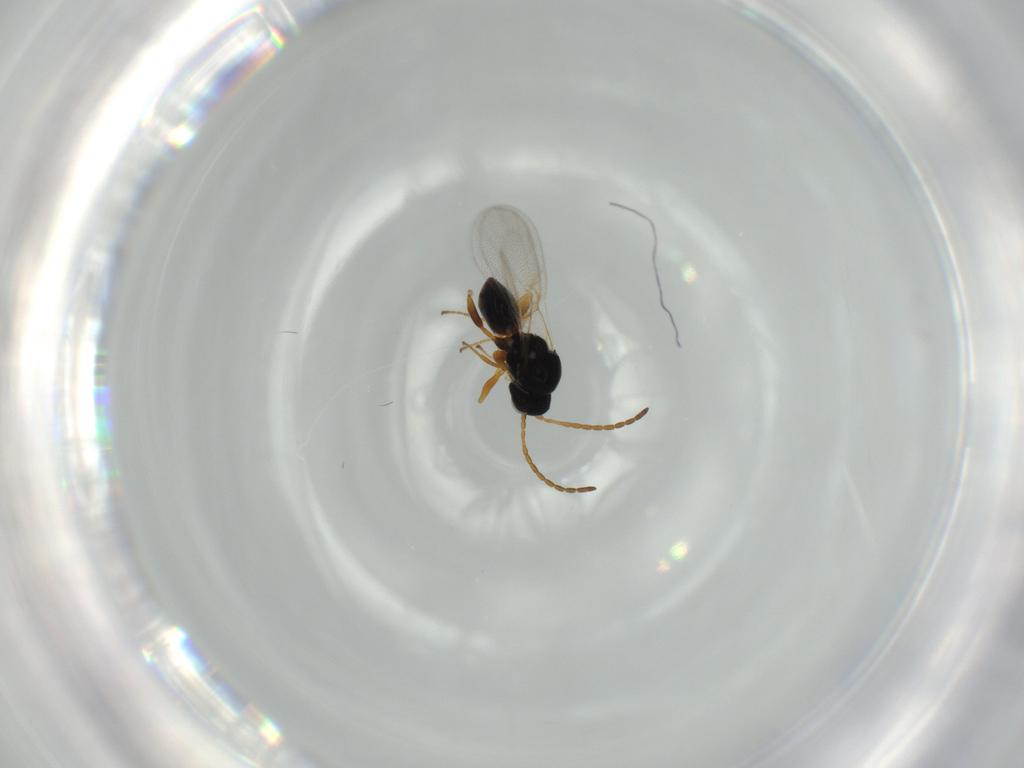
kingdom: Animalia
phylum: Arthropoda
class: Insecta
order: Hymenoptera
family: Figitidae
